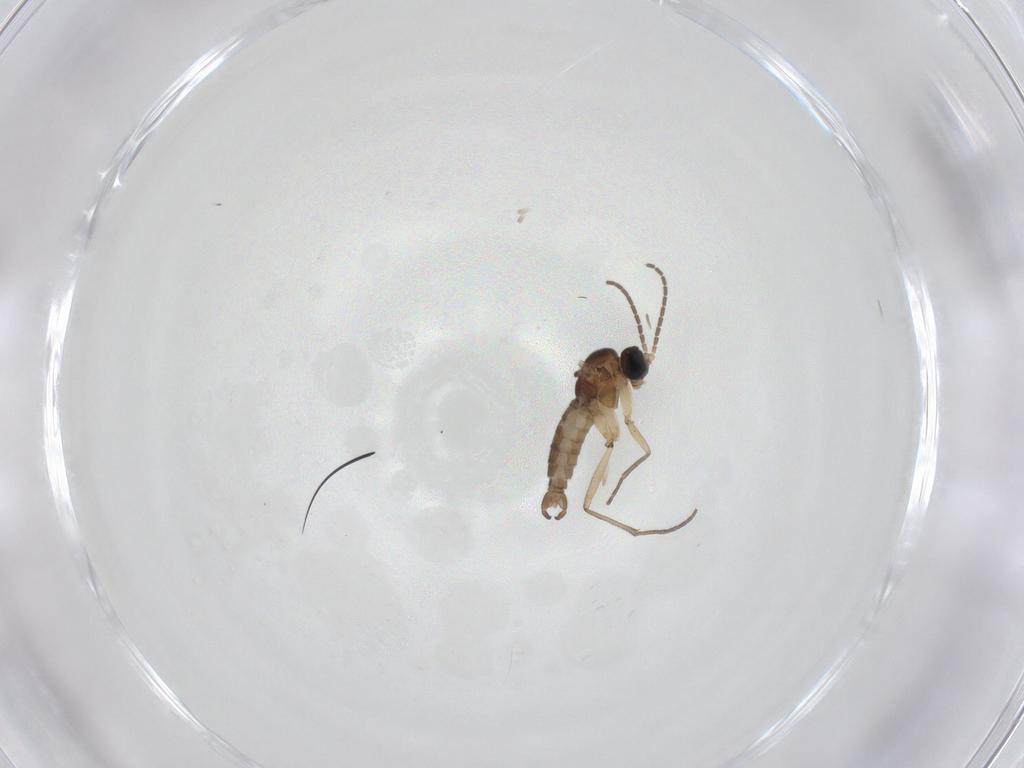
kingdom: Animalia
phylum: Arthropoda
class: Insecta
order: Diptera
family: Sciaridae
